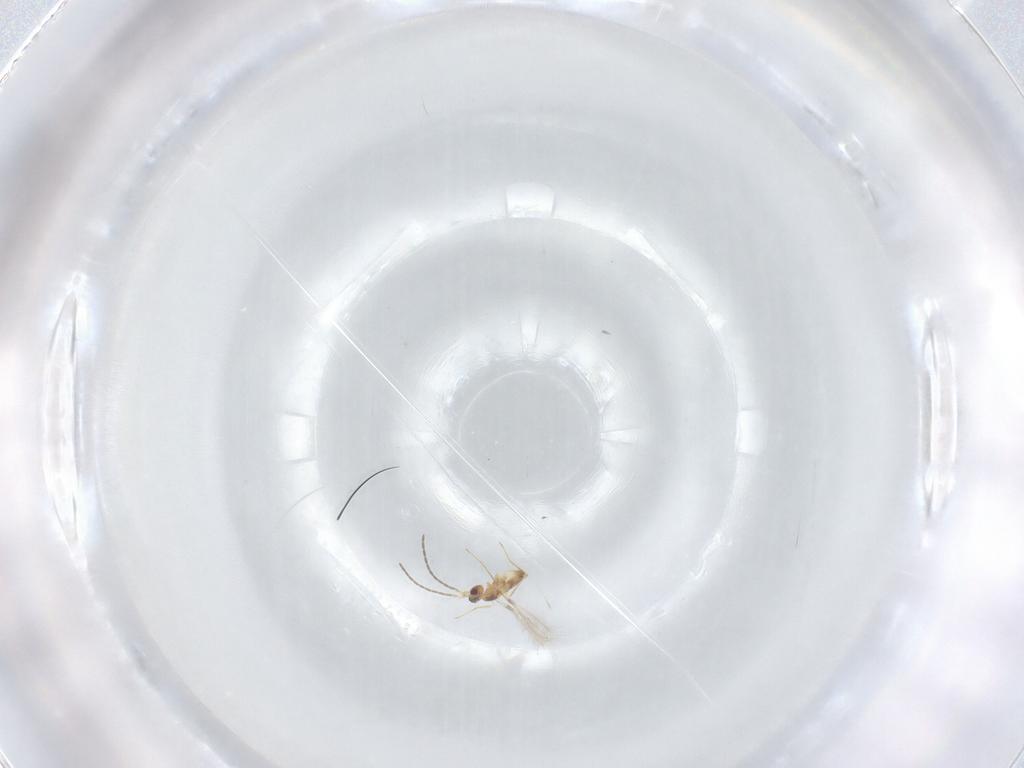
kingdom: Animalia
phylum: Arthropoda
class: Insecta
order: Hymenoptera
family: Mymaridae
